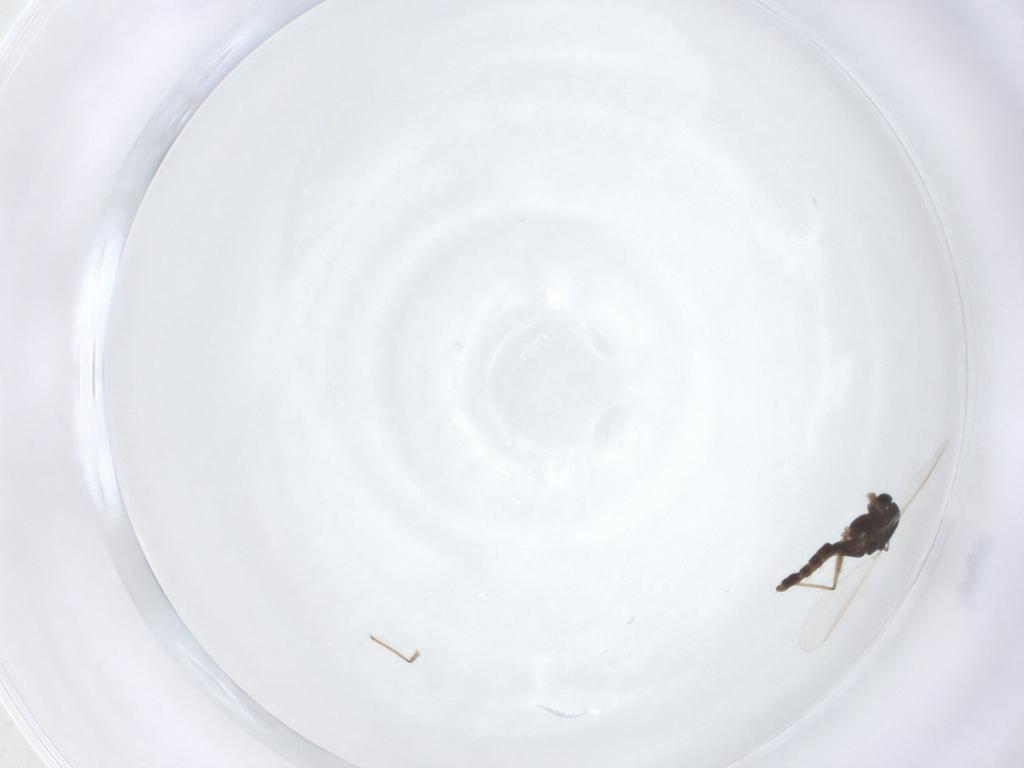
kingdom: Animalia
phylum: Arthropoda
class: Insecta
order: Diptera
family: Chironomidae
